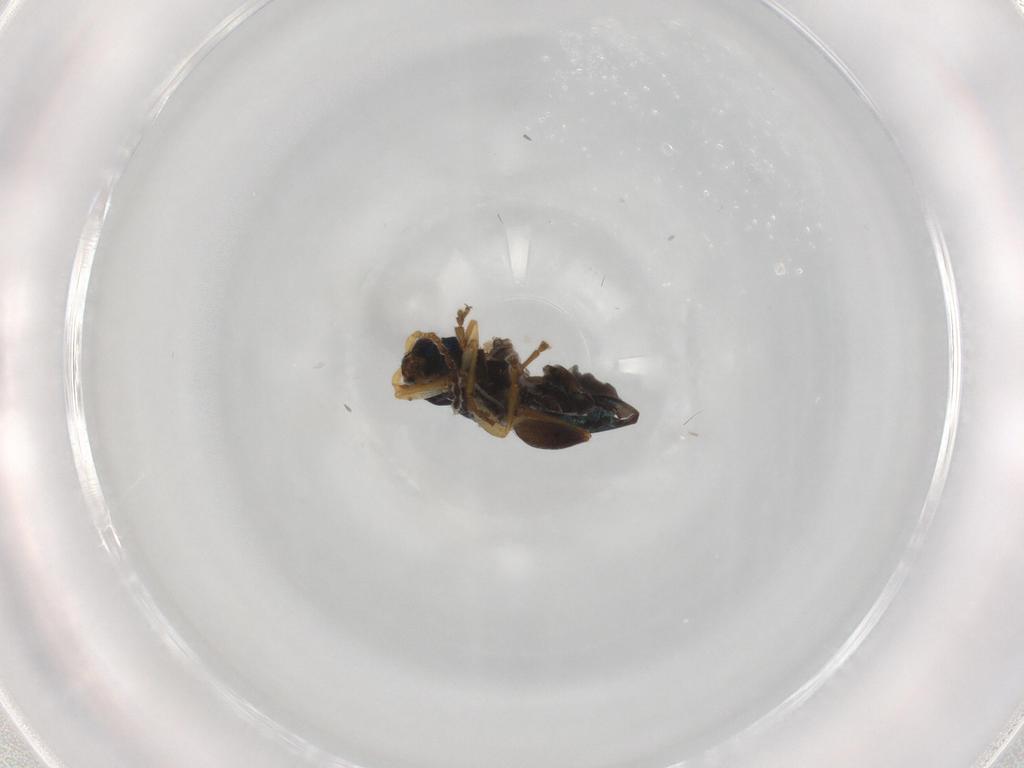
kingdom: Animalia
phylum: Arthropoda
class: Insecta
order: Coleoptera
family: Chrysomelidae
